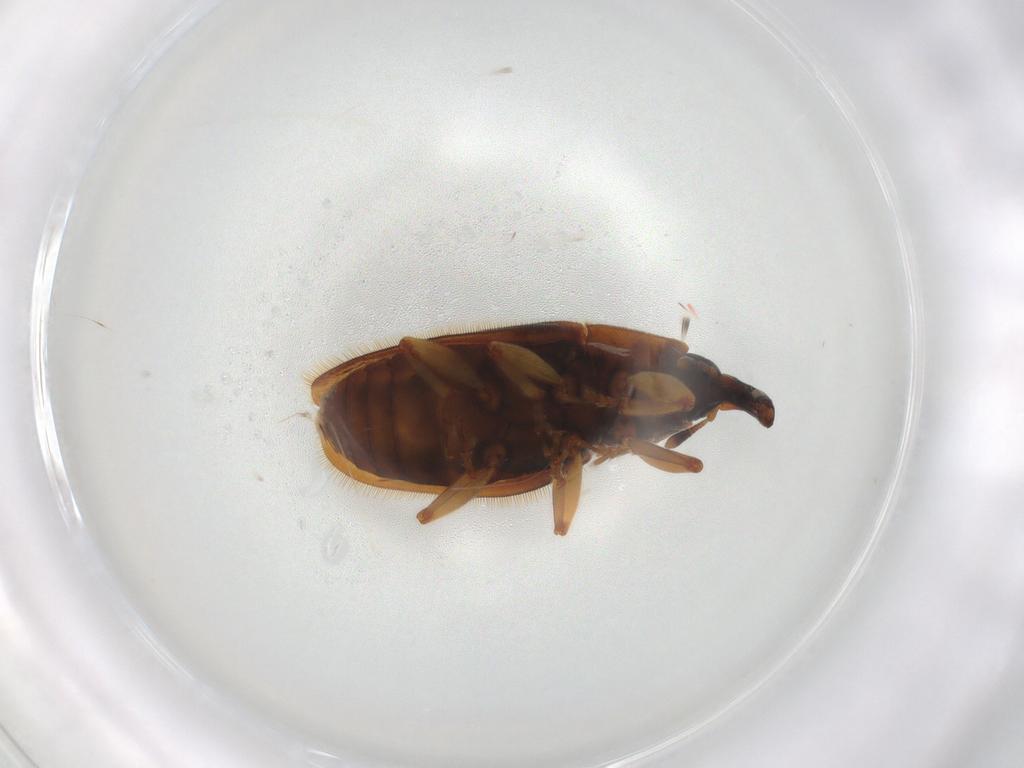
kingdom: Animalia
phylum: Arthropoda
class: Insecta
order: Coleoptera
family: Curculionidae
